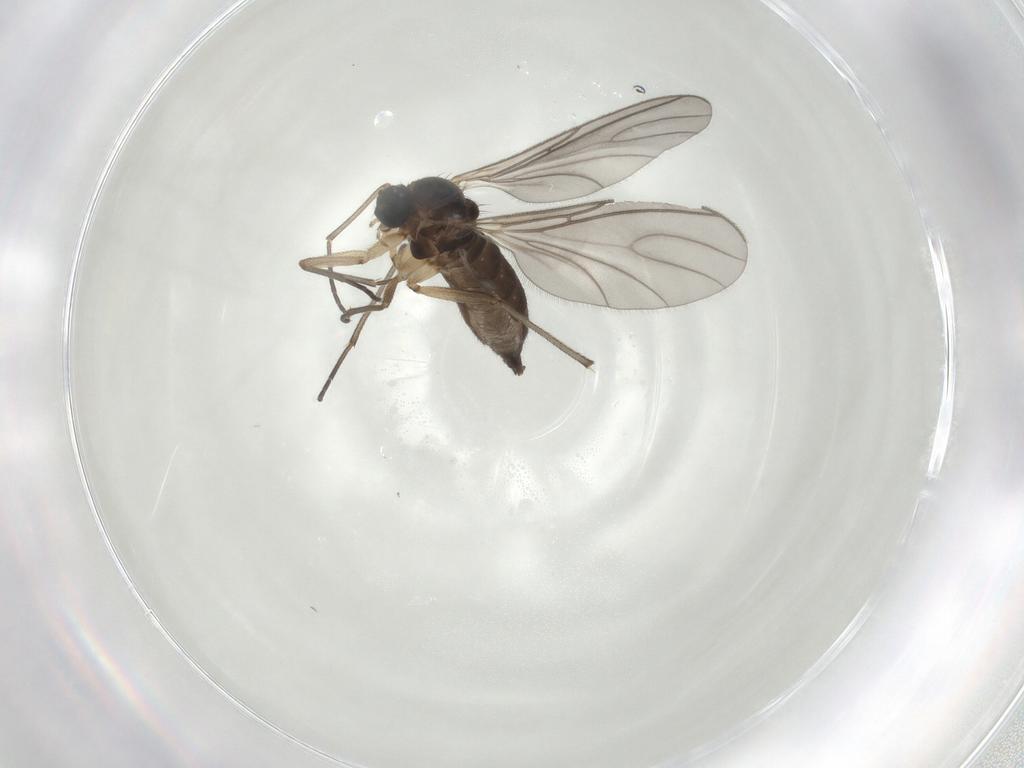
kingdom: Animalia
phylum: Arthropoda
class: Insecta
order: Diptera
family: Sciaridae
